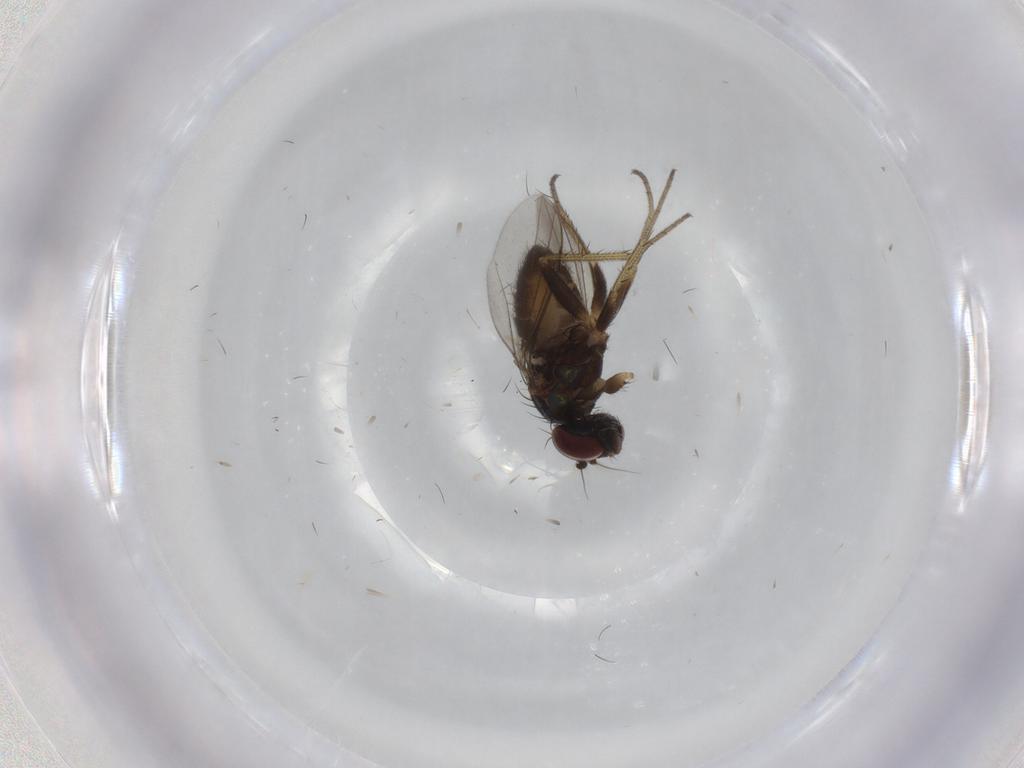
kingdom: Animalia
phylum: Arthropoda
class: Insecta
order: Diptera
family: Dolichopodidae
